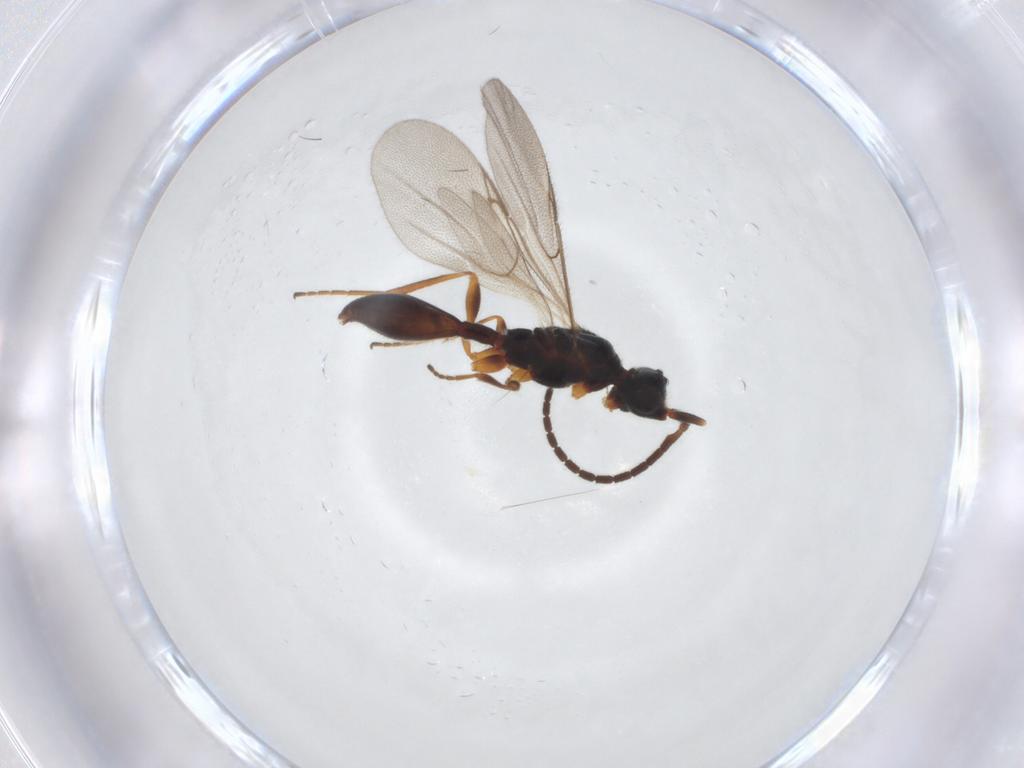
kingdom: Animalia
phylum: Arthropoda
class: Insecta
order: Hymenoptera
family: Diapriidae
